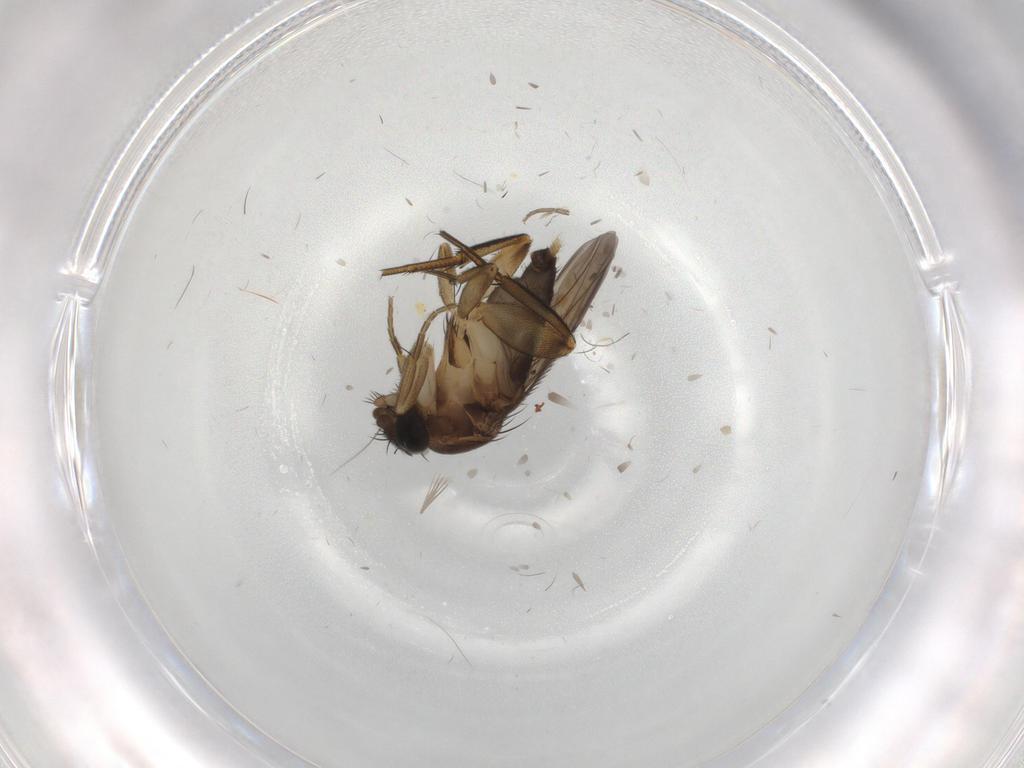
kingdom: Animalia
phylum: Arthropoda
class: Insecta
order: Diptera
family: Phoridae
